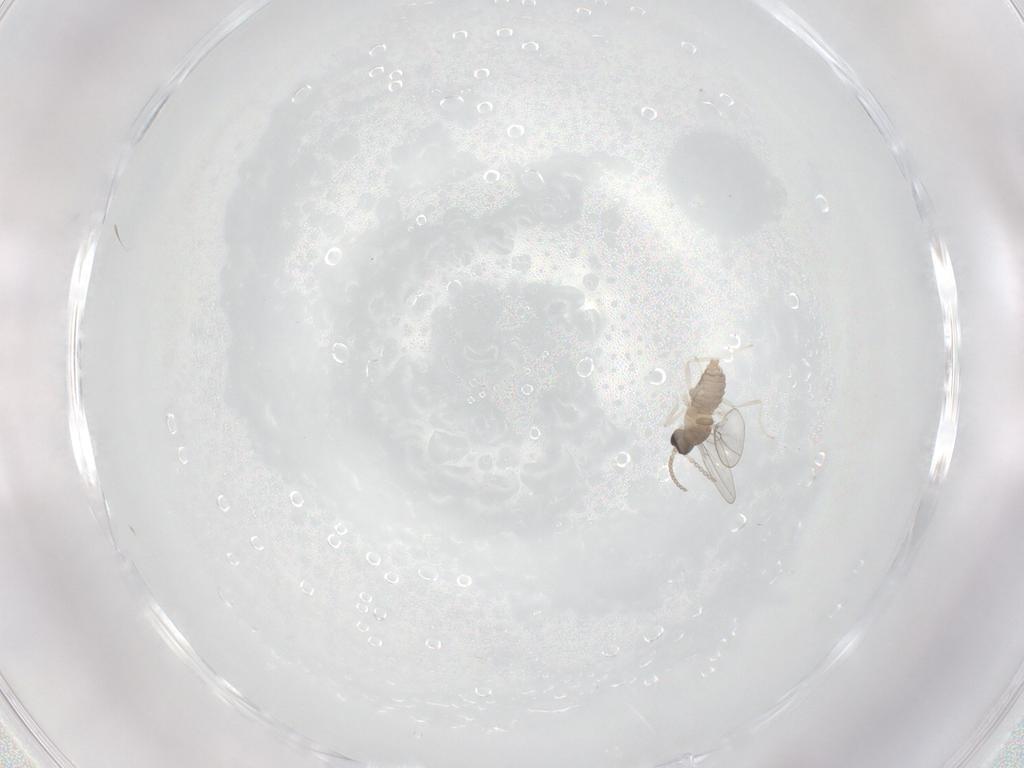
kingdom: Animalia
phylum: Arthropoda
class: Insecta
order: Diptera
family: Cecidomyiidae
